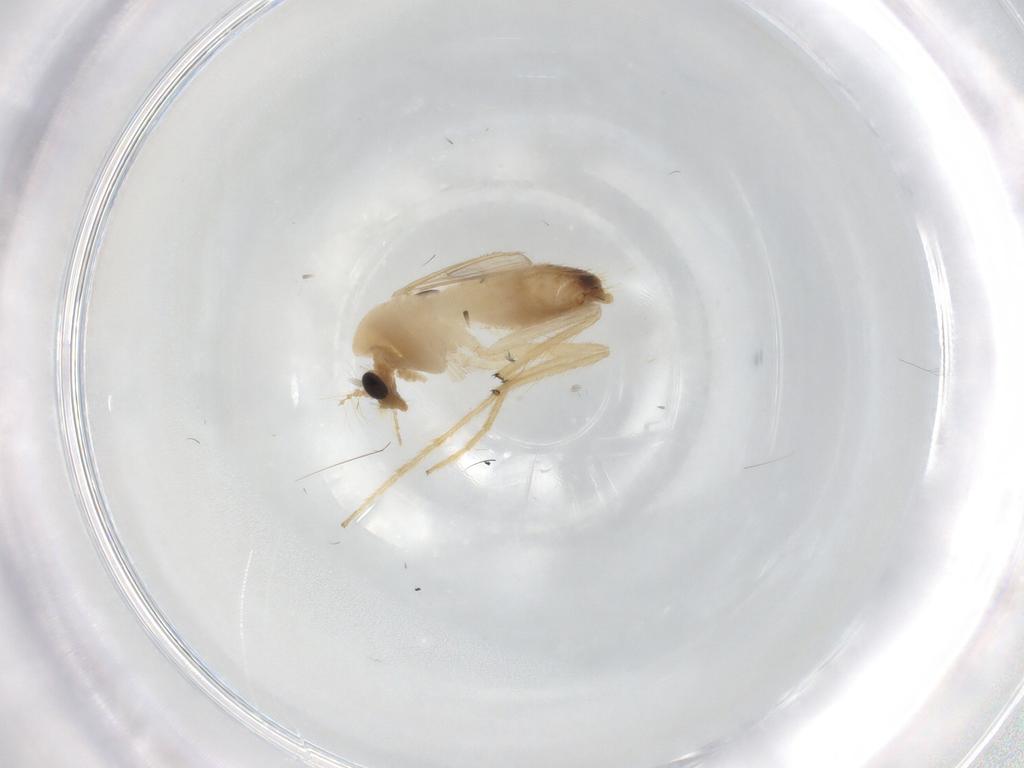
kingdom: Animalia
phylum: Arthropoda
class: Insecta
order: Diptera
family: Chironomidae
